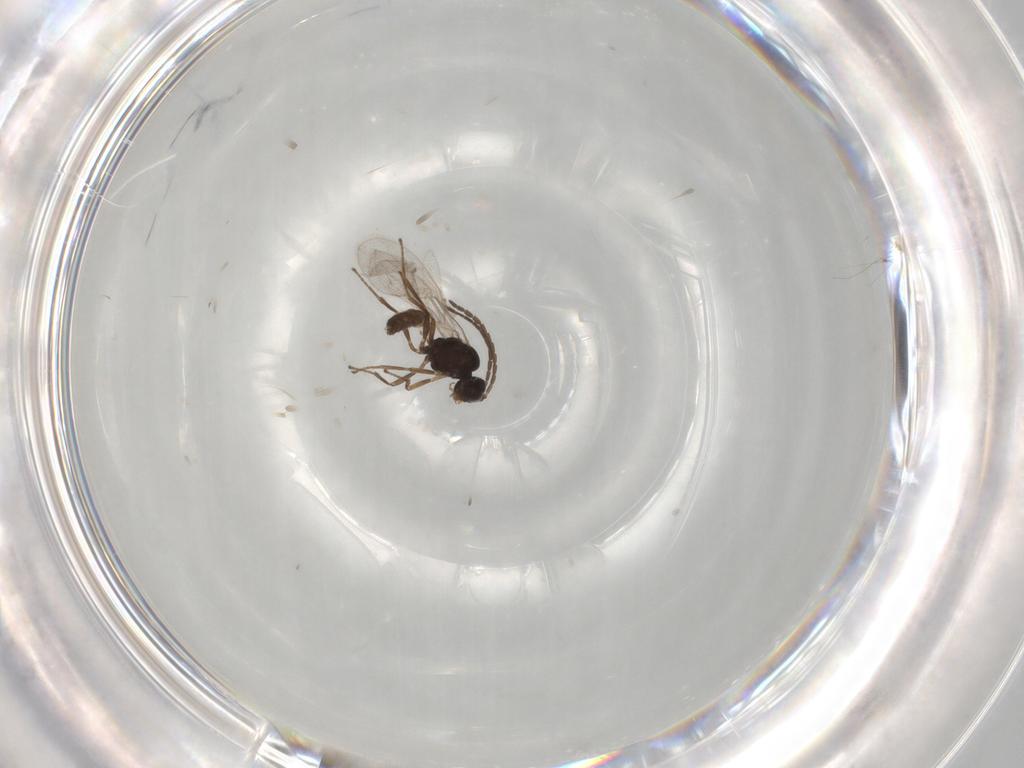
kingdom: Animalia
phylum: Arthropoda
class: Insecta
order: Hymenoptera
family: Braconidae
